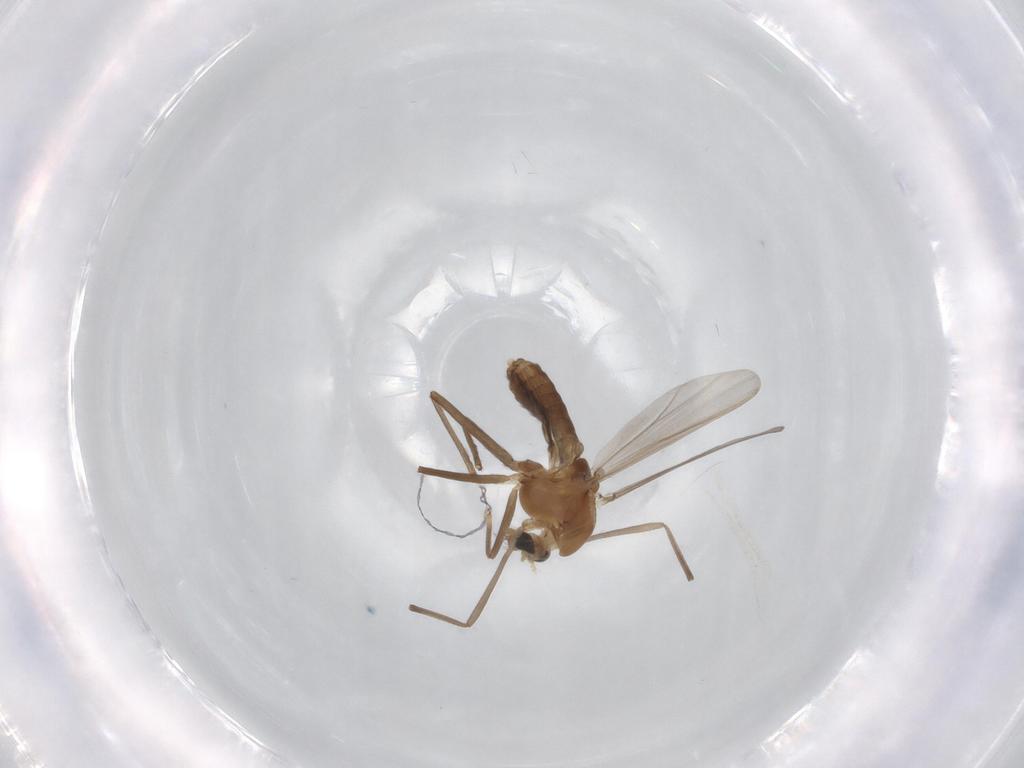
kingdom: Animalia
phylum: Arthropoda
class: Insecta
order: Diptera
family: Chironomidae
